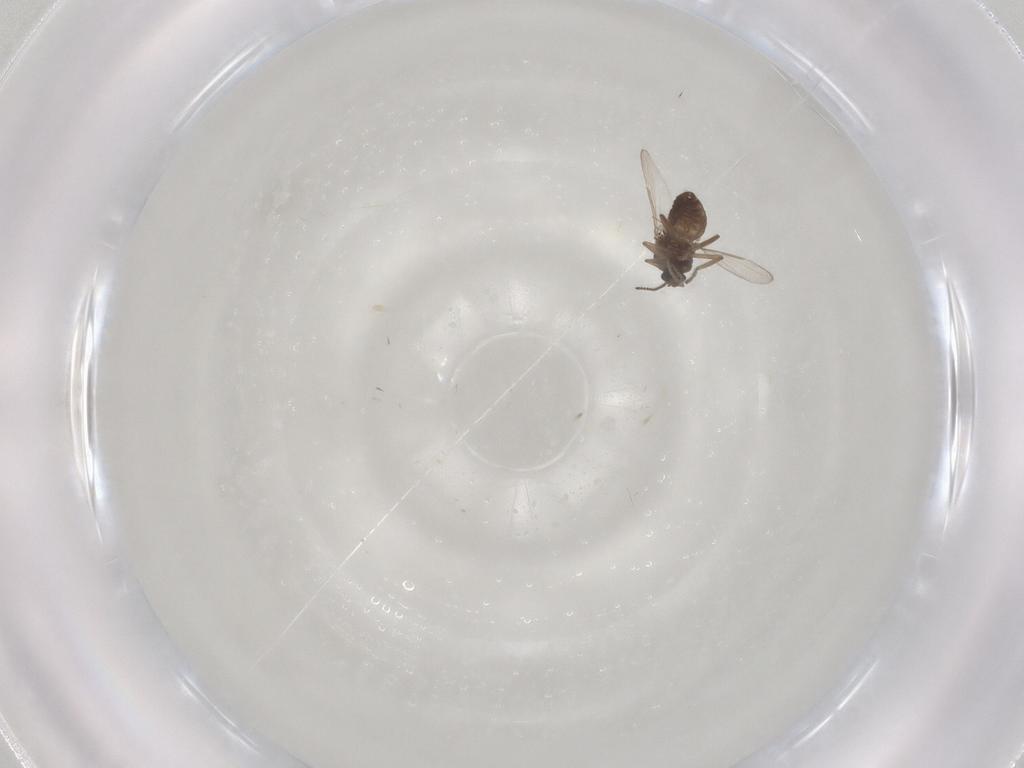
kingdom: Animalia
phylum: Arthropoda
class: Insecta
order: Diptera
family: Ceratopogonidae
